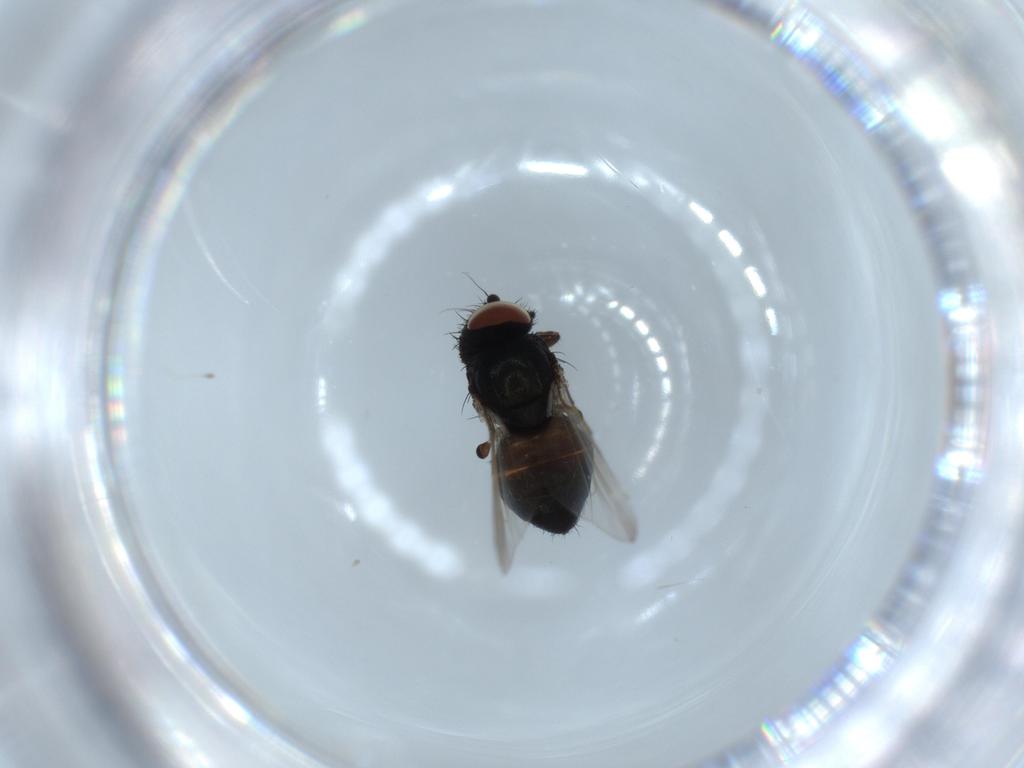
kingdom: Animalia
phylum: Arthropoda
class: Insecta
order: Diptera
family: Milichiidae
